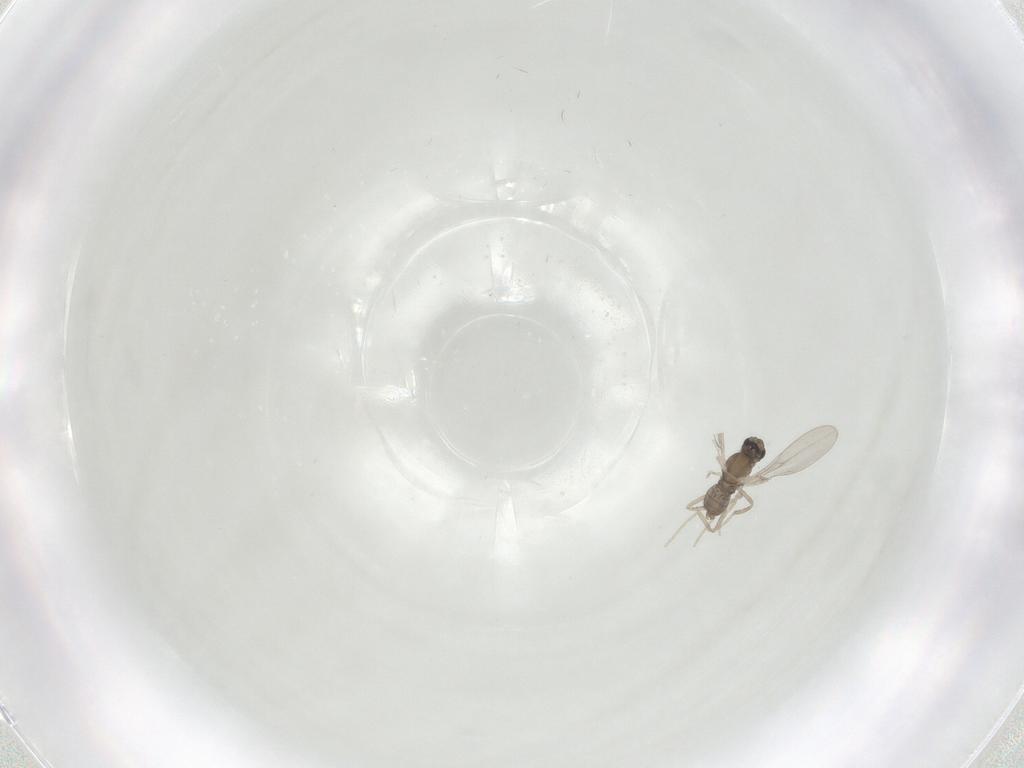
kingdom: Animalia
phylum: Arthropoda
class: Insecta
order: Diptera
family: Cecidomyiidae
